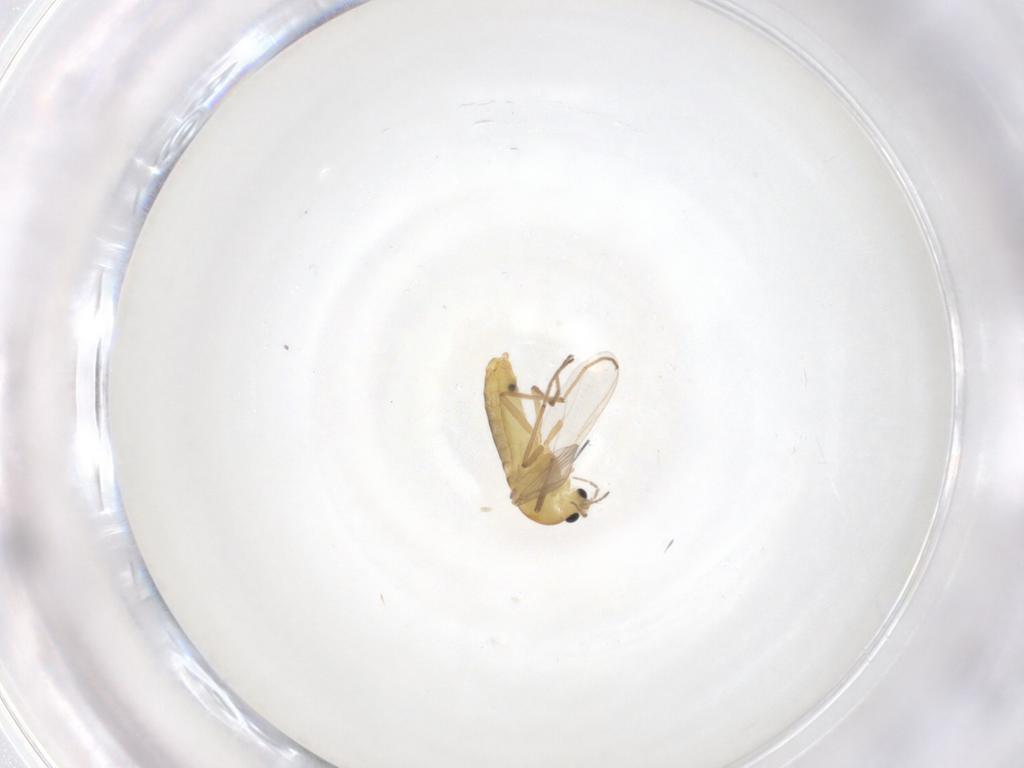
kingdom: Animalia
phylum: Arthropoda
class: Insecta
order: Diptera
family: Chironomidae
